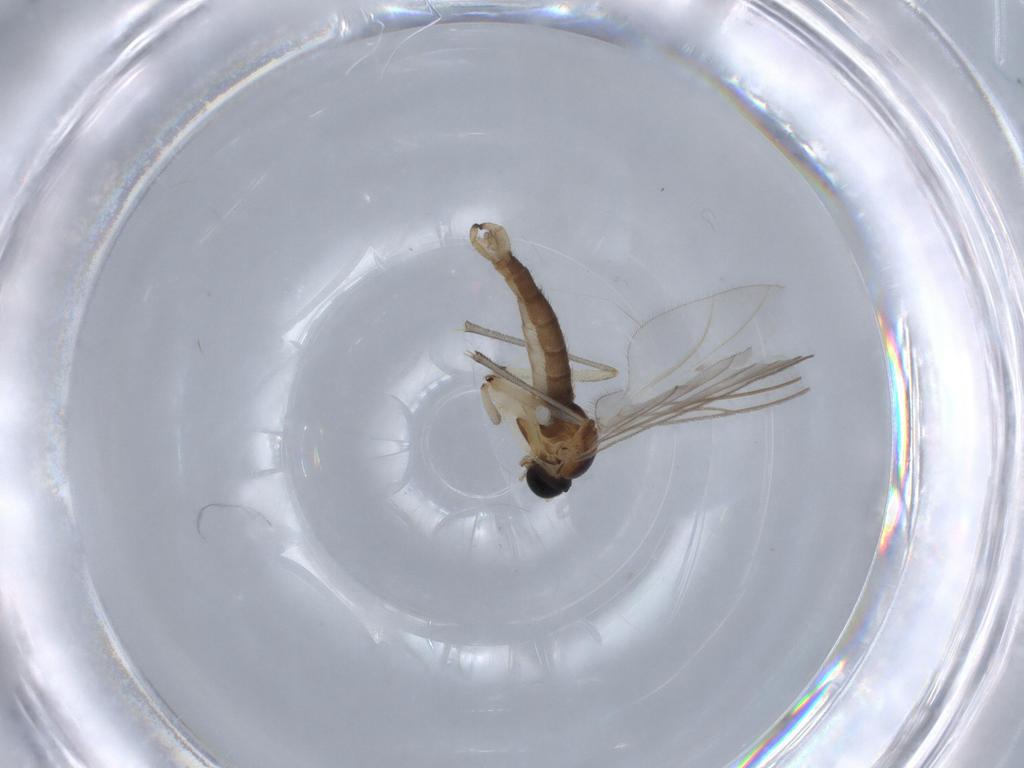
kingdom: Animalia
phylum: Arthropoda
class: Insecta
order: Diptera
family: Sciaridae
